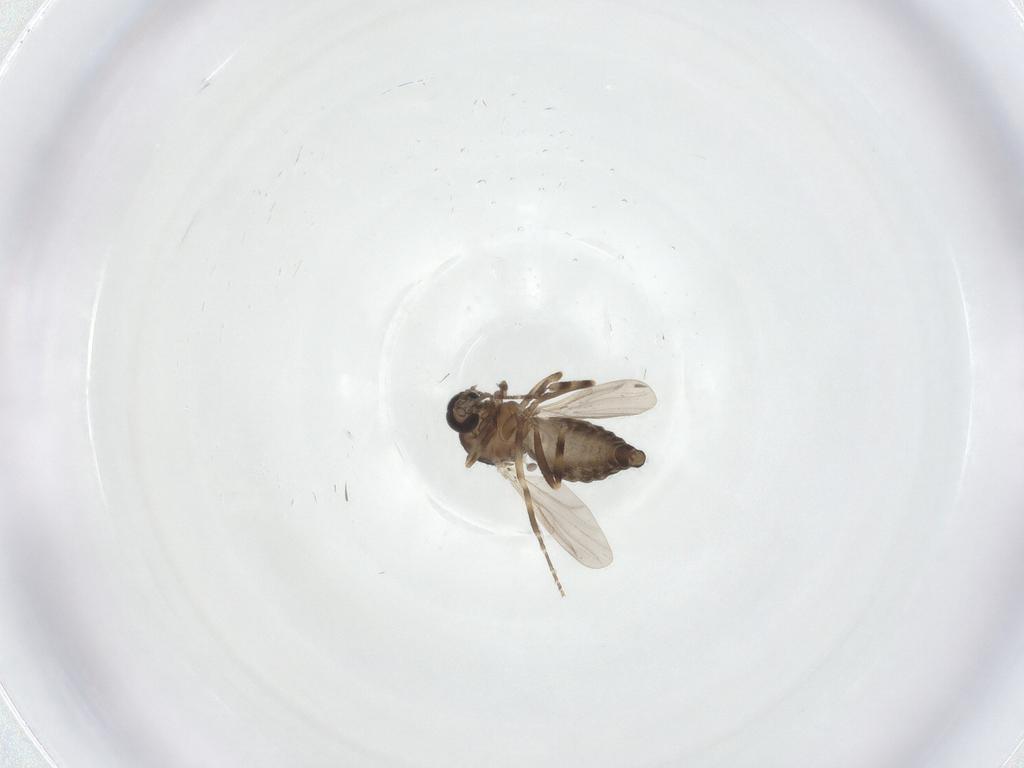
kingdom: Animalia
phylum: Arthropoda
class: Insecta
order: Diptera
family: Ceratopogonidae
